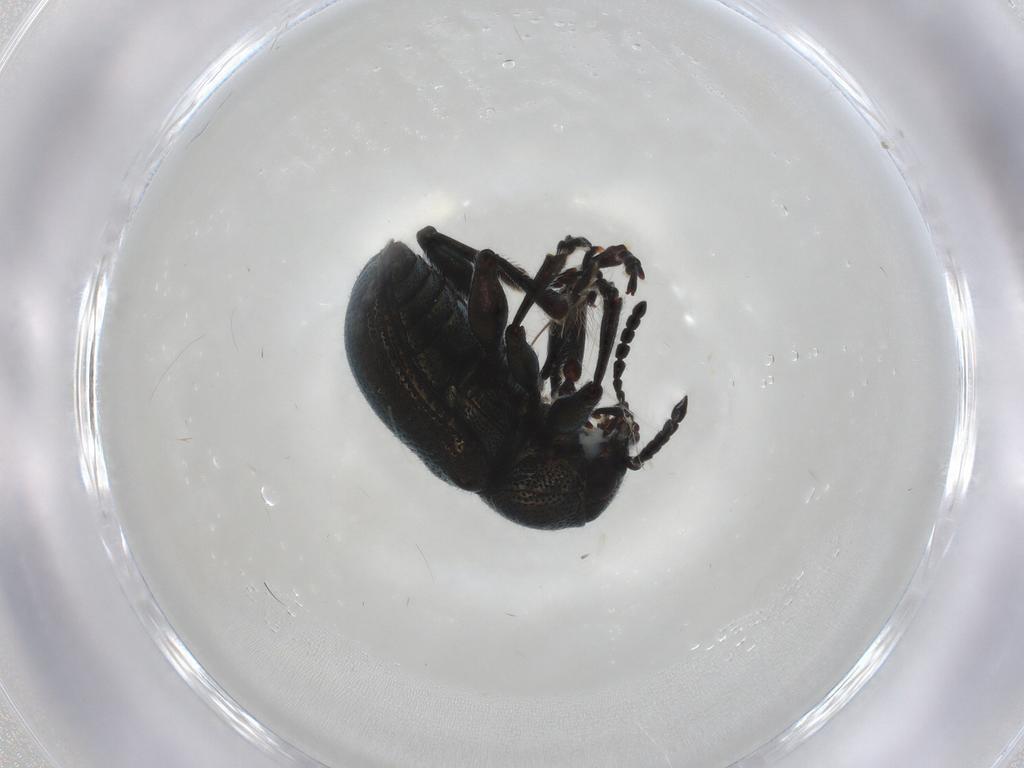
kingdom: Animalia
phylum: Arthropoda
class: Insecta
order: Coleoptera
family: Chrysomelidae
